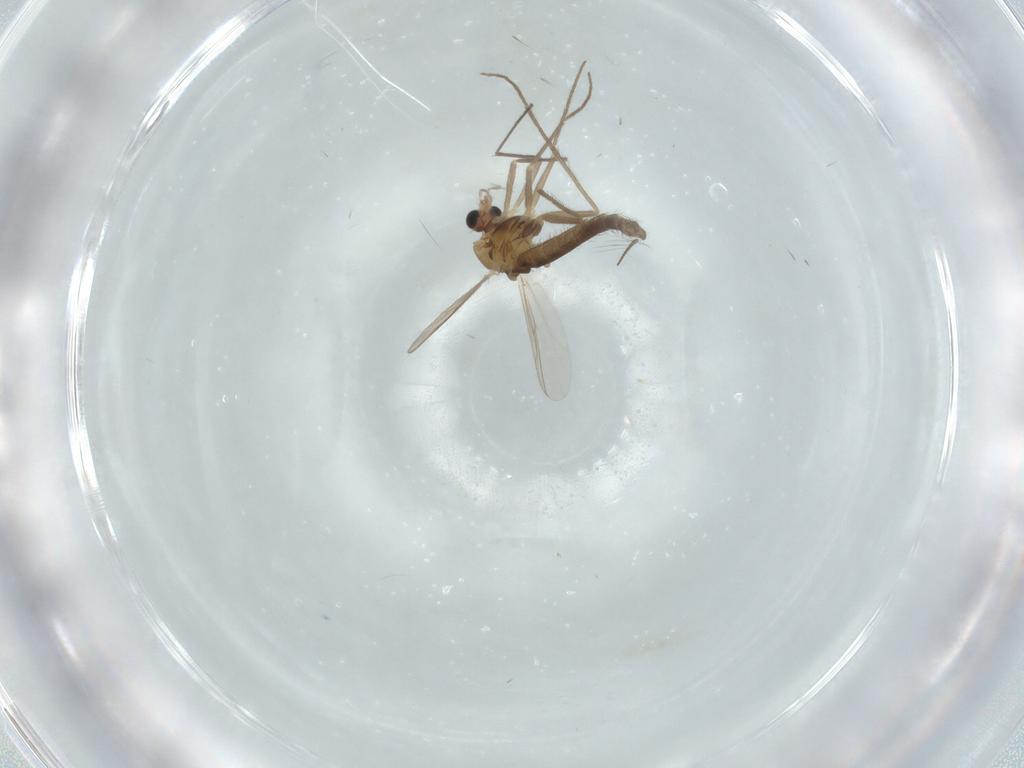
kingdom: Animalia
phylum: Arthropoda
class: Insecta
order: Diptera
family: Chironomidae
